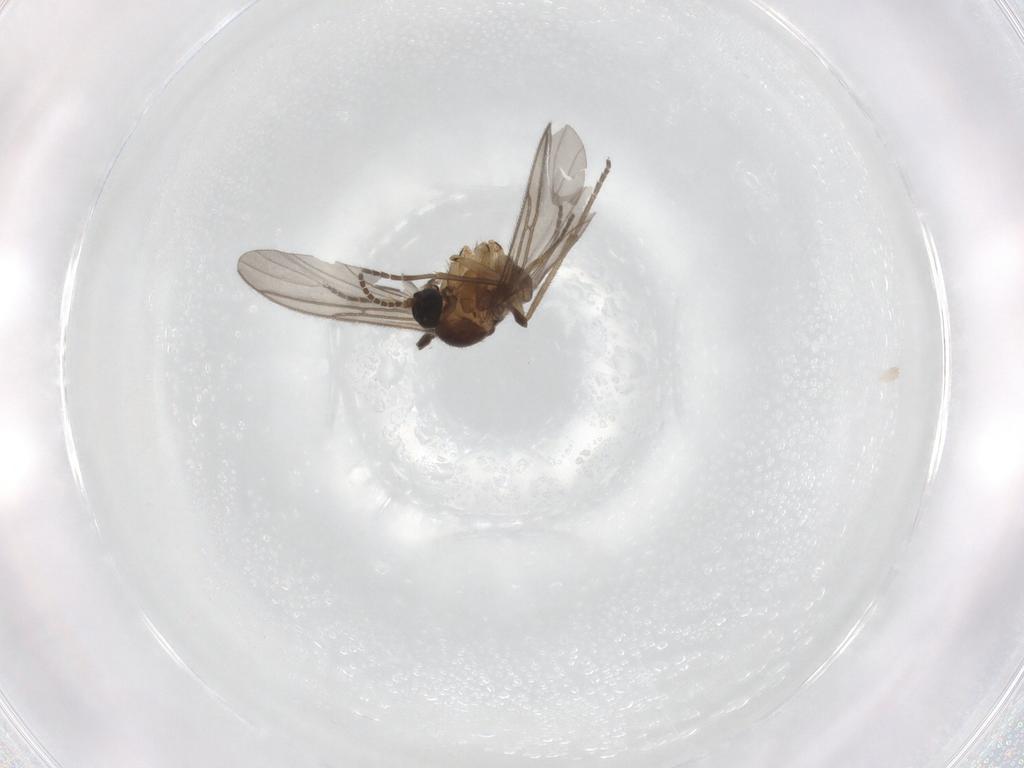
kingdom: Animalia
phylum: Arthropoda
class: Insecta
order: Diptera
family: Sciaridae
